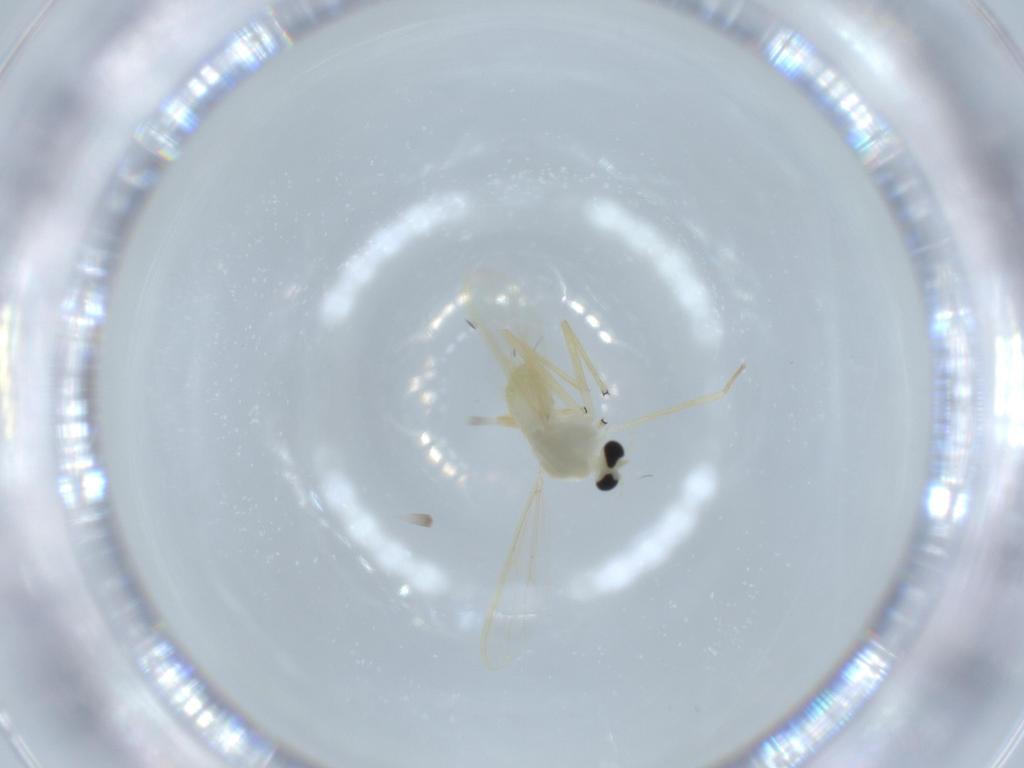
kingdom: Animalia
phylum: Arthropoda
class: Insecta
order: Diptera
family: Chironomidae
